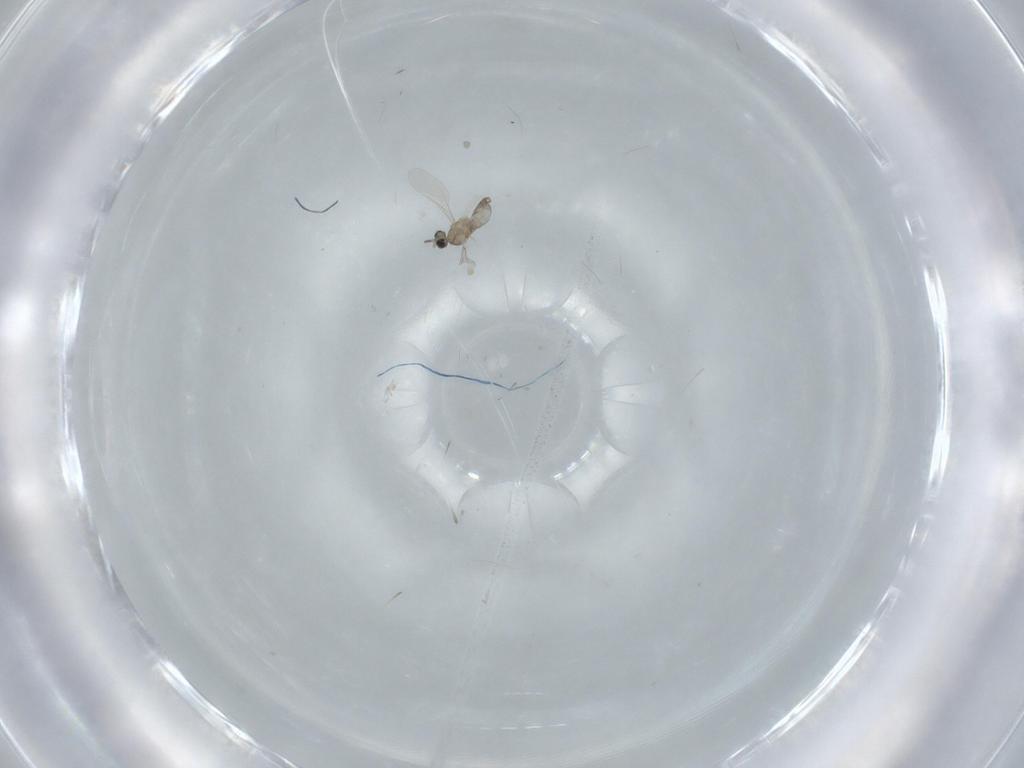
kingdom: Animalia
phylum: Arthropoda
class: Insecta
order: Diptera
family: Cecidomyiidae
